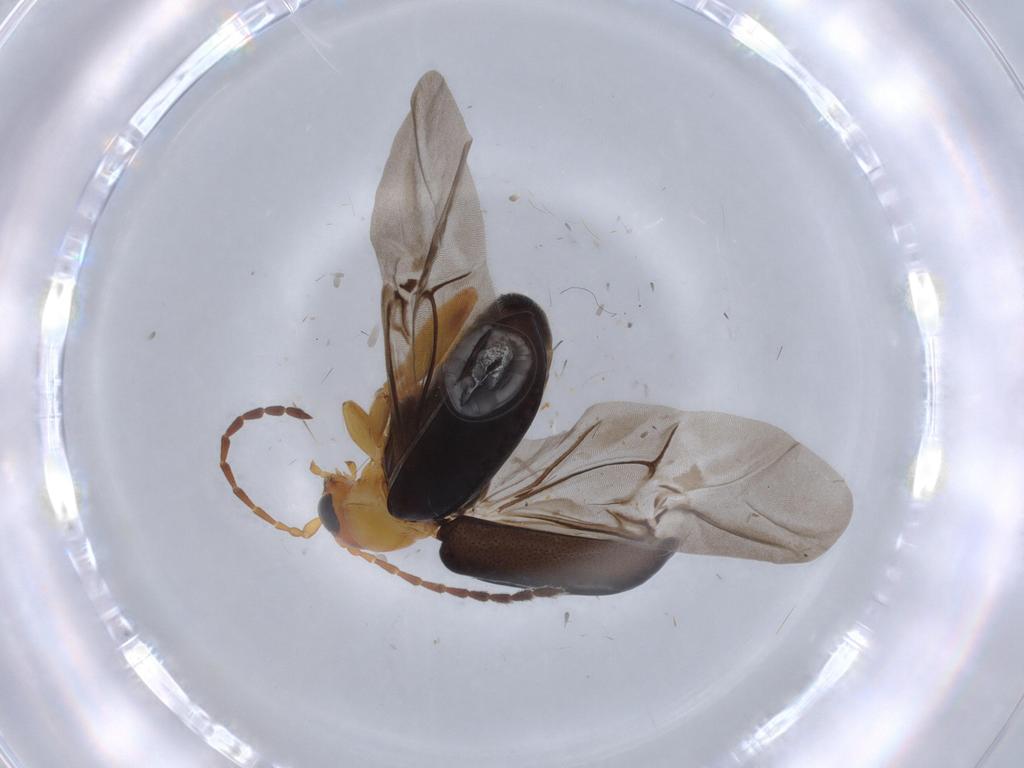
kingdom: Animalia
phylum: Arthropoda
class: Insecta
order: Coleoptera
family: Chrysomelidae
